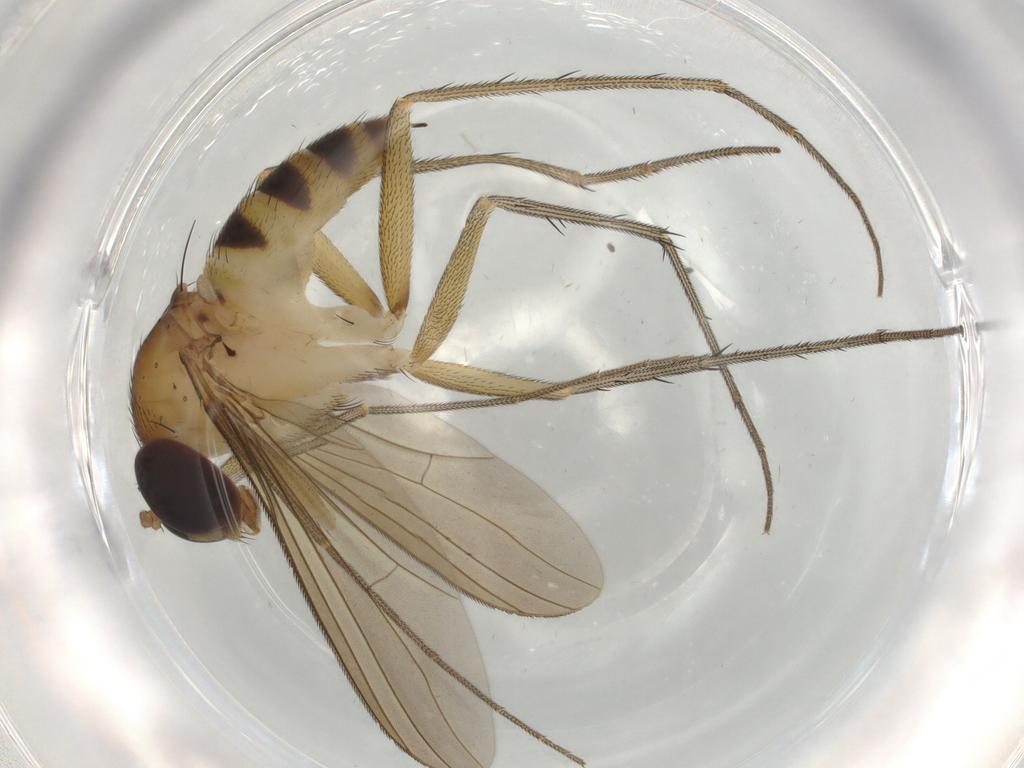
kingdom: Animalia
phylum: Arthropoda
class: Insecta
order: Diptera
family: Dolichopodidae
